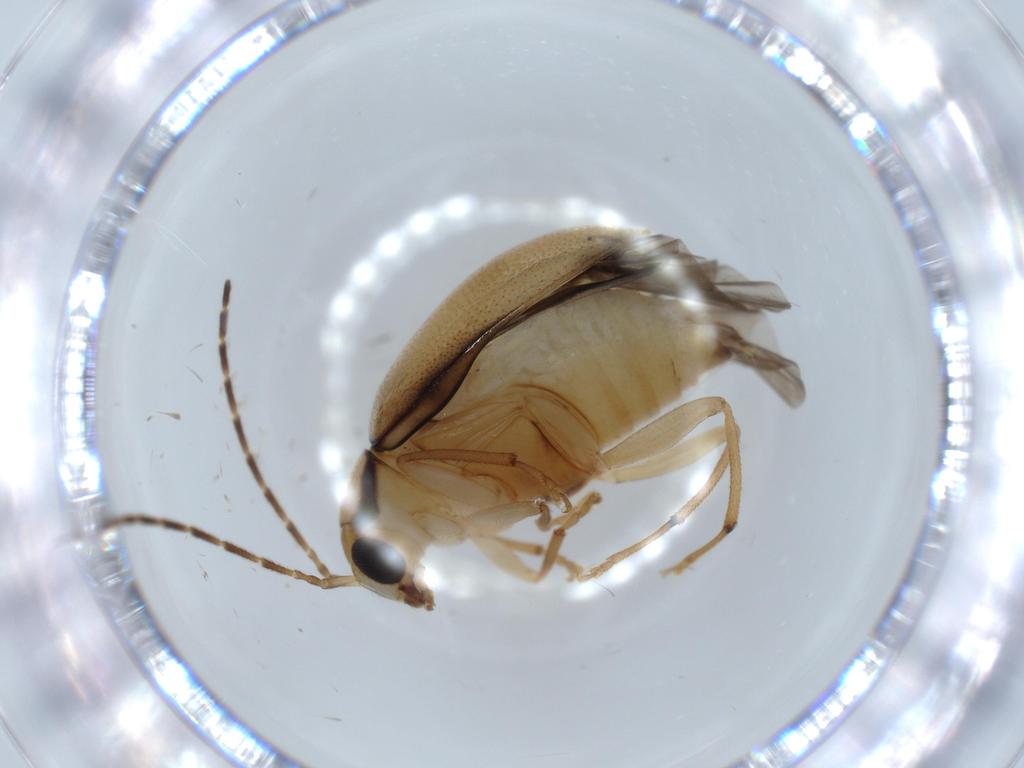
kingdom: Animalia
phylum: Arthropoda
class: Insecta
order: Coleoptera
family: Chrysomelidae
